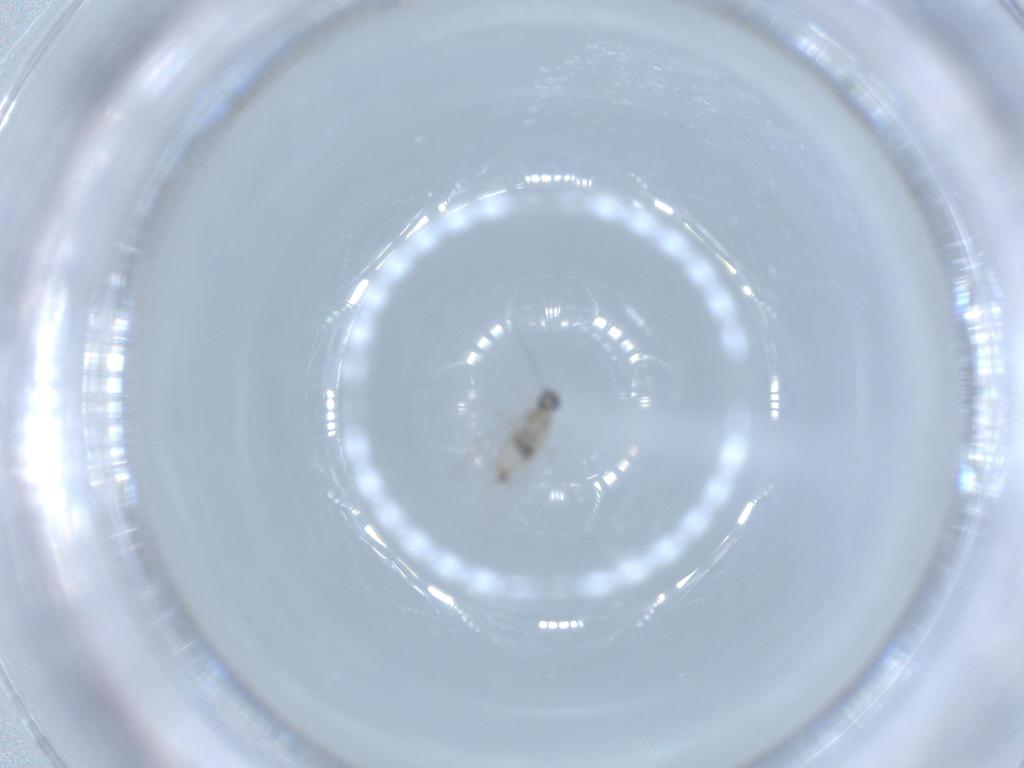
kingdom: Animalia
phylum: Arthropoda
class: Insecta
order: Diptera
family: Cecidomyiidae
